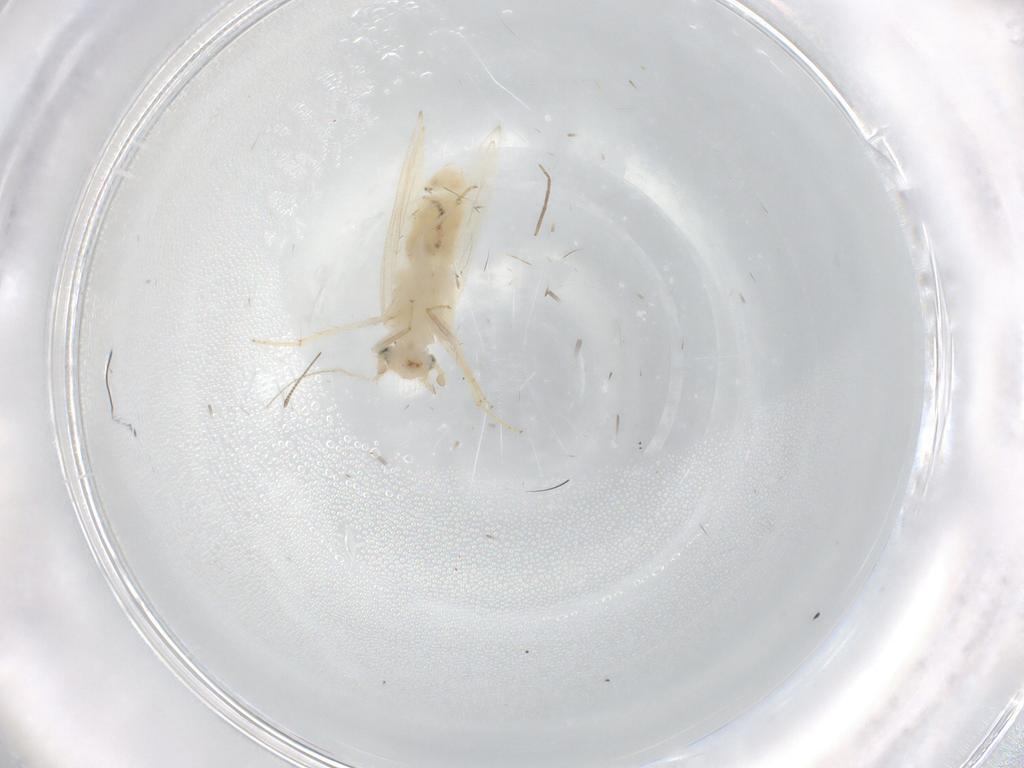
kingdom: Animalia
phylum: Arthropoda
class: Insecta
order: Psocodea
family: Lepidopsocidae
